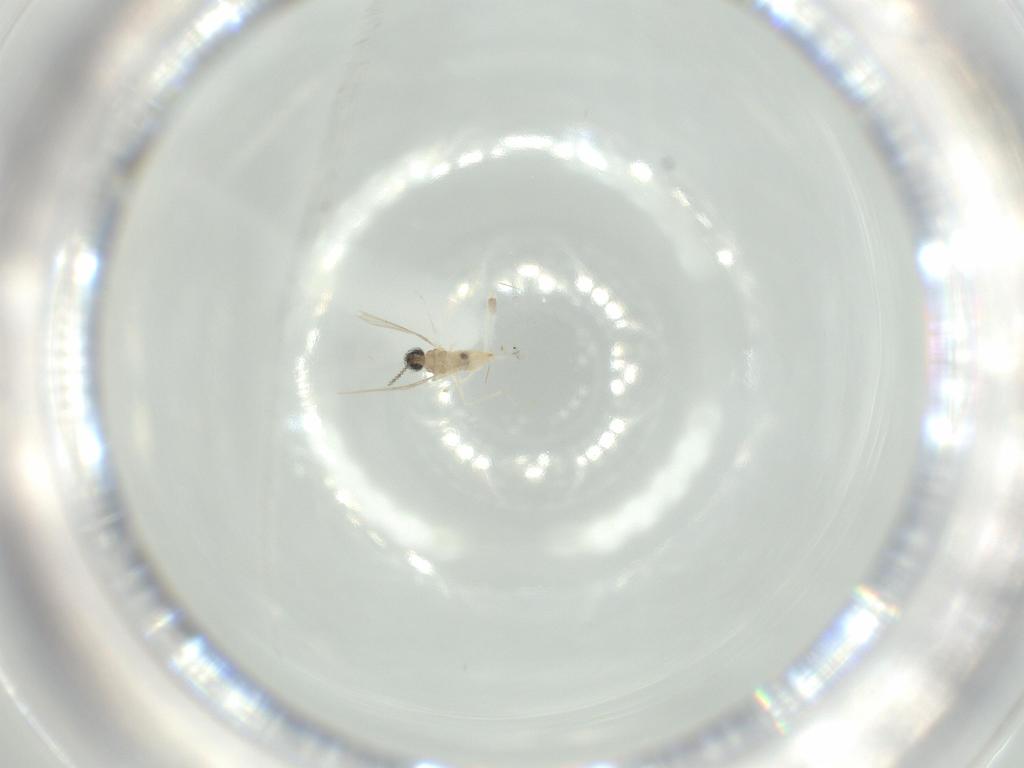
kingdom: Animalia
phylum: Arthropoda
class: Insecta
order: Diptera
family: Cecidomyiidae
